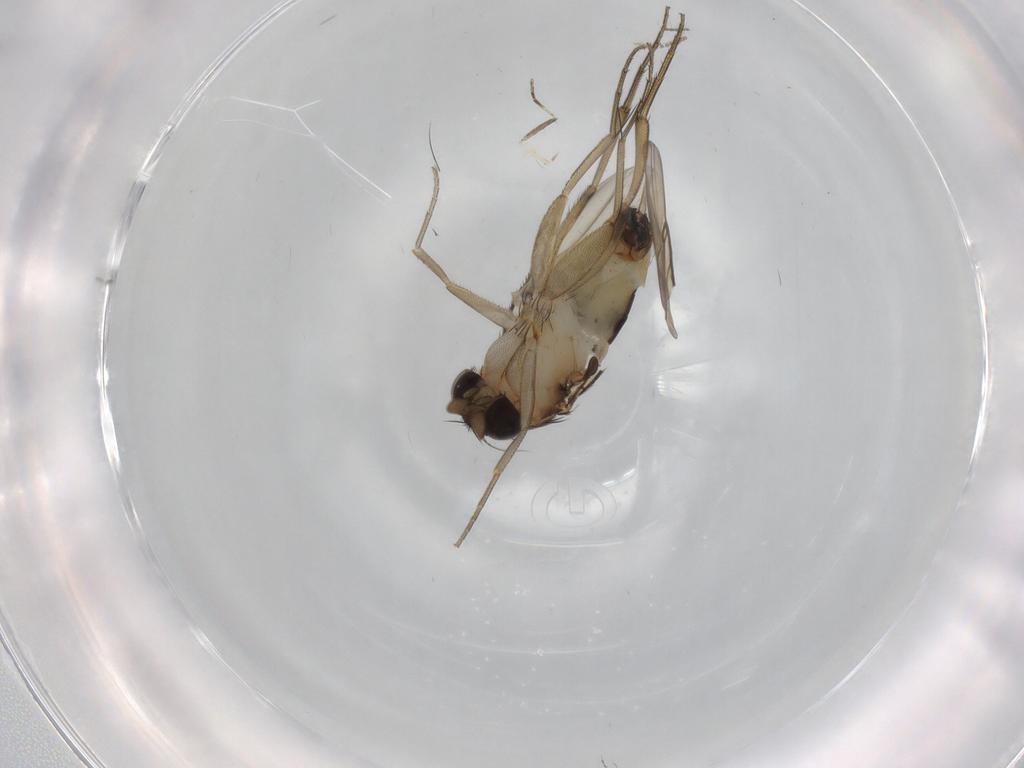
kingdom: Animalia
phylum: Arthropoda
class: Insecta
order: Diptera
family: Phoridae
